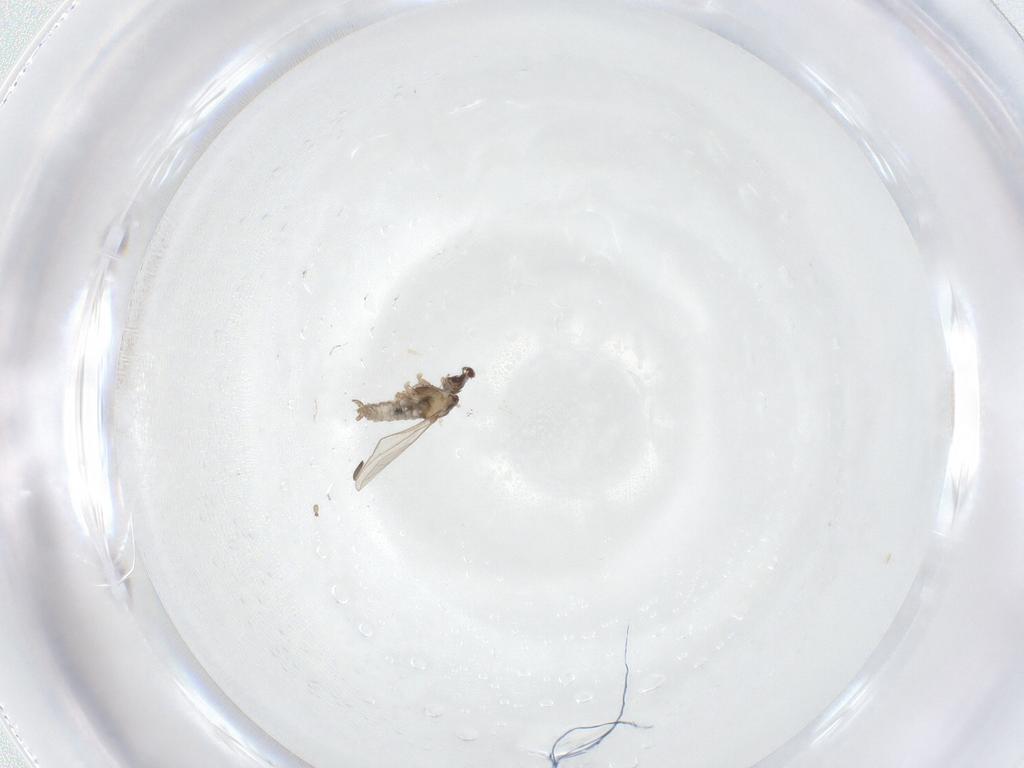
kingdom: Animalia
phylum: Arthropoda
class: Insecta
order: Diptera
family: Cecidomyiidae
